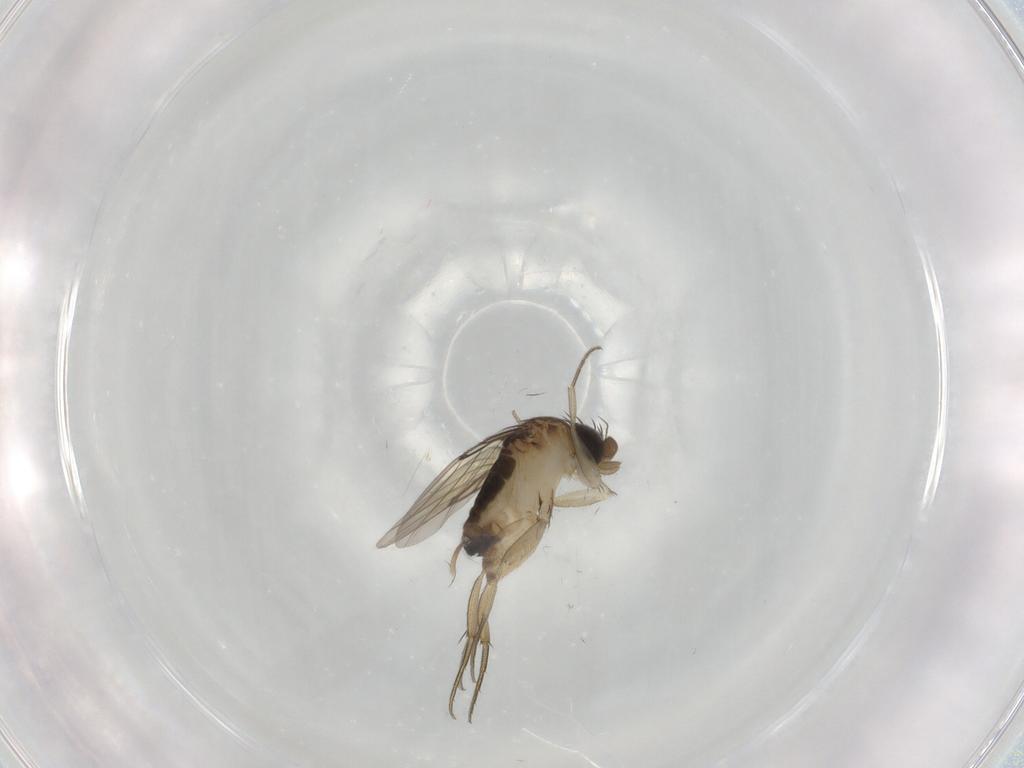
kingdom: Animalia
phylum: Arthropoda
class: Insecta
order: Diptera
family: Phoridae
